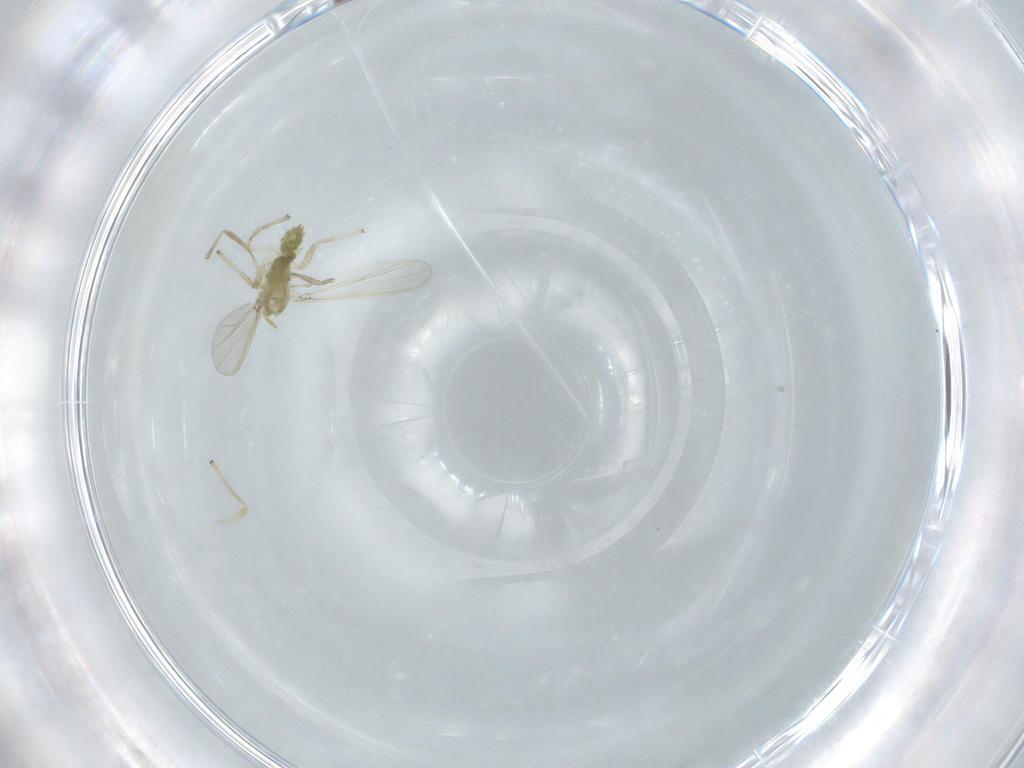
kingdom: Animalia
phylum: Arthropoda
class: Insecta
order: Diptera
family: Chironomidae
